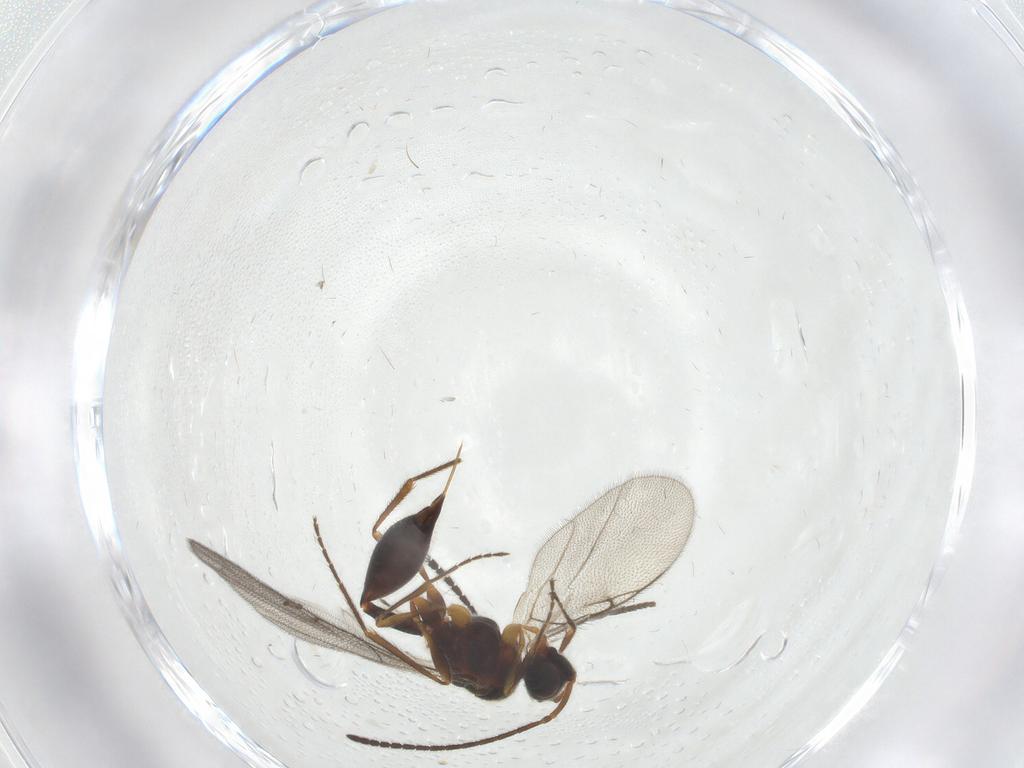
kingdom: Animalia
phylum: Arthropoda
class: Insecta
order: Hymenoptera
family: Diapriidae
